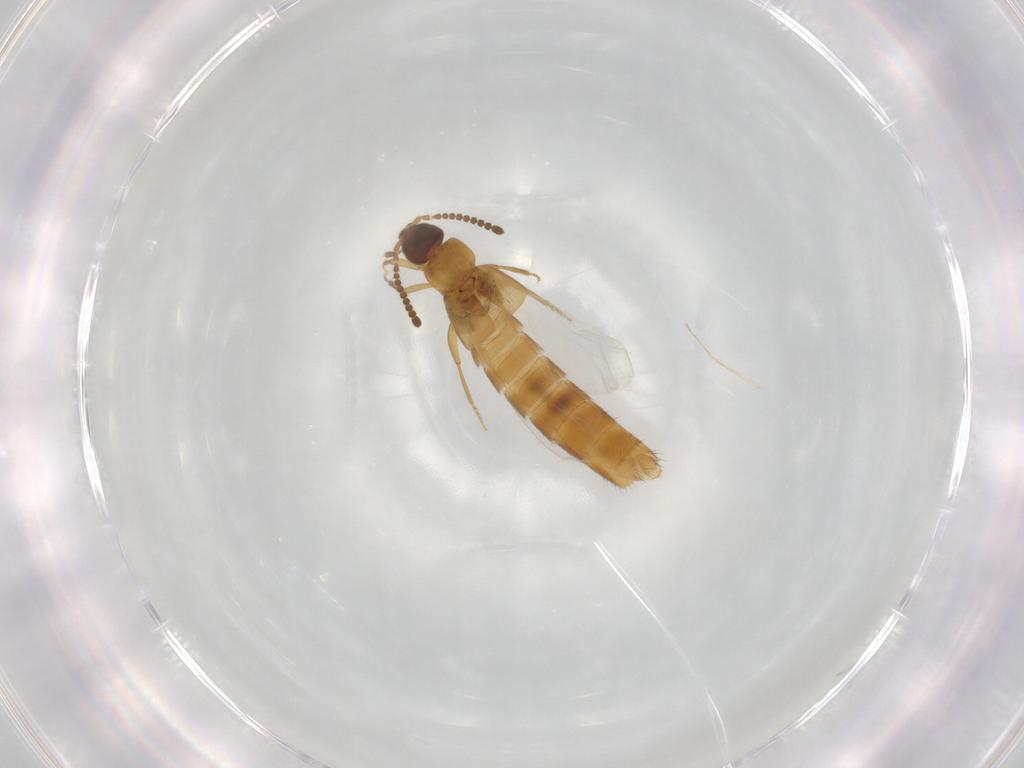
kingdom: Animalia
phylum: Arthropoda
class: Insecta
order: Coleoptera
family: Staphylinidae
